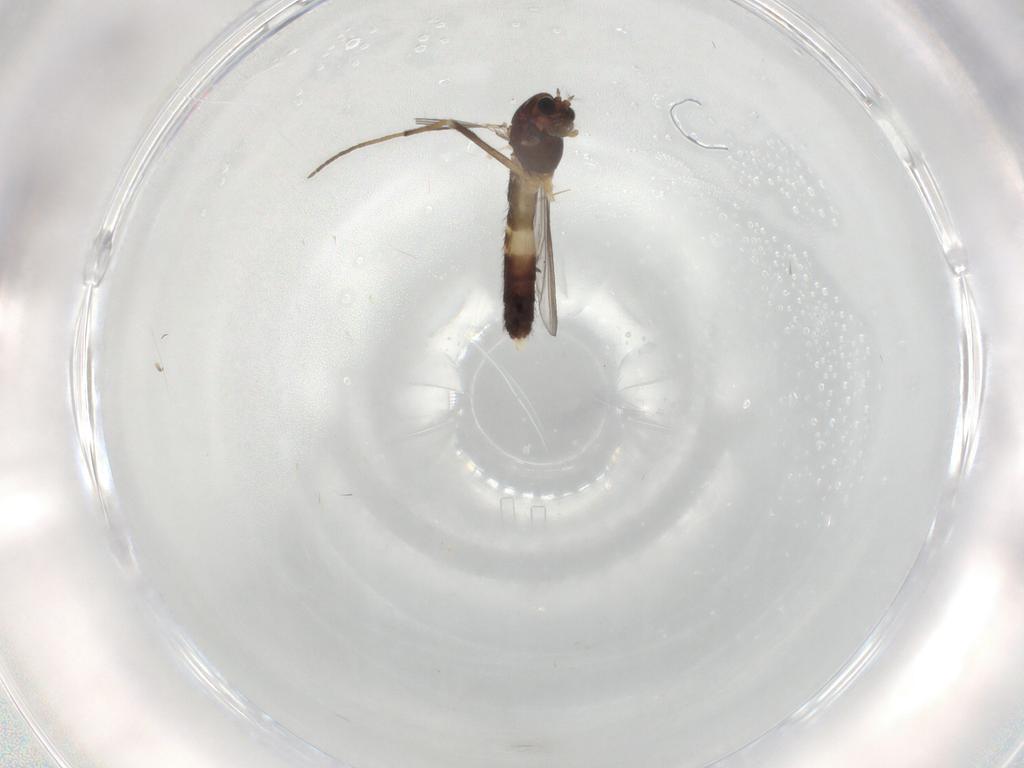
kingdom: Animalia
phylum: Arthropoda
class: Insecta
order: Diptera
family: Chironomidae
